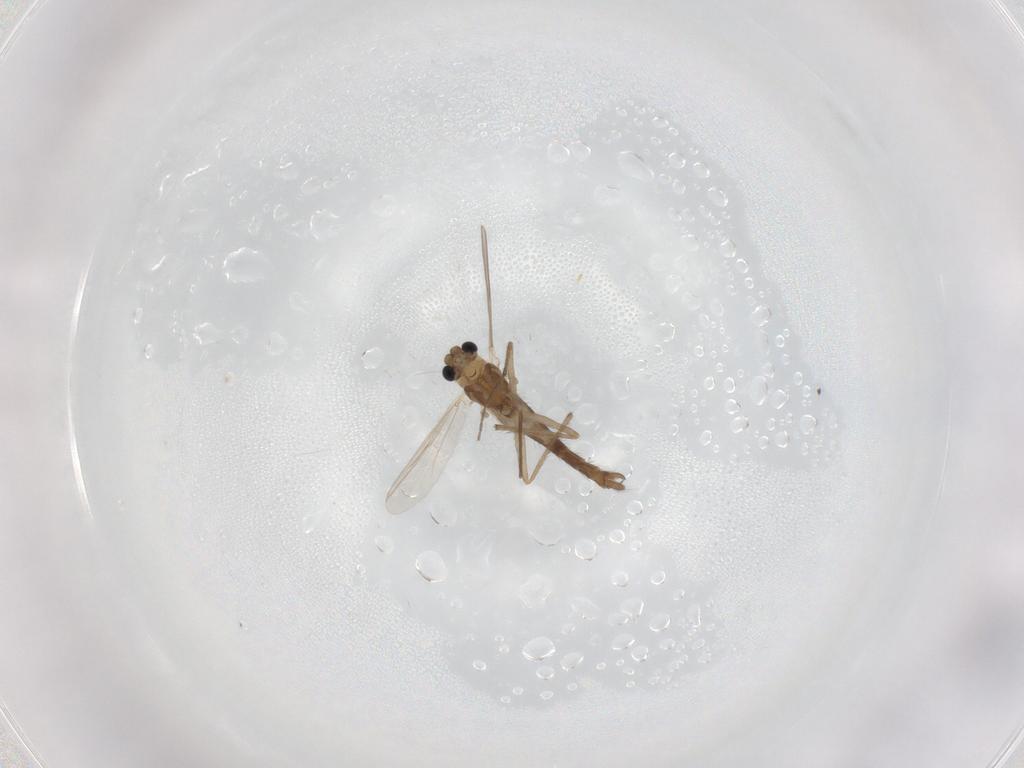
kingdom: Animalia
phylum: Arthropoda
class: Insecta
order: Diptera
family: Chironomidae
